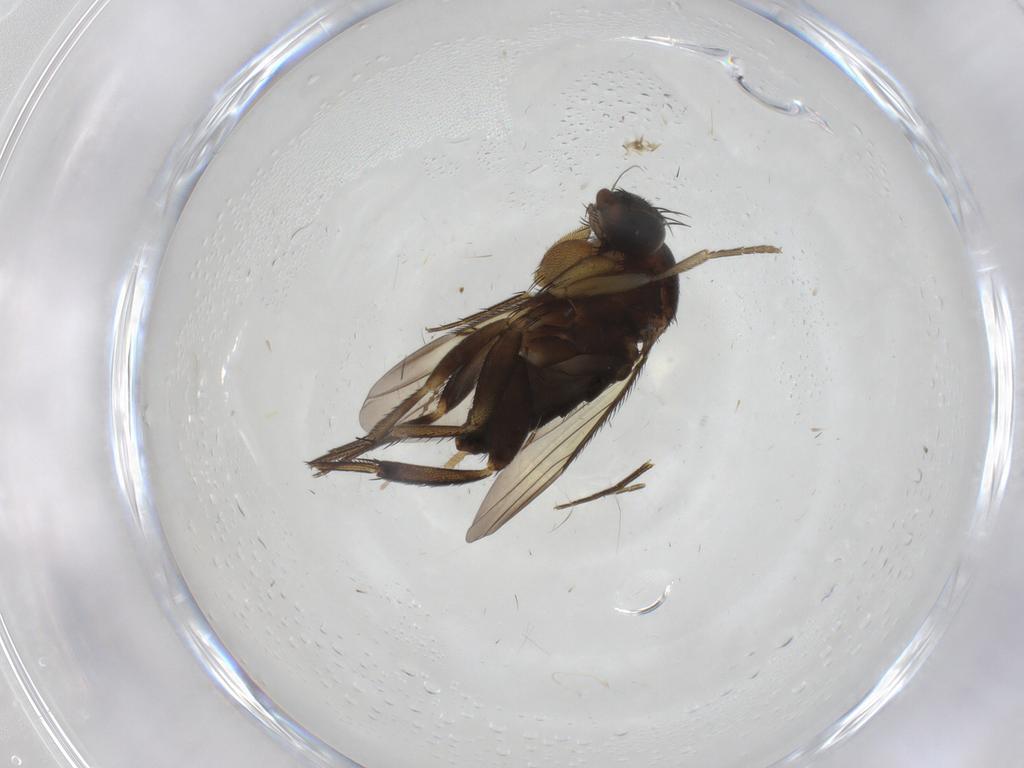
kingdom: Animalia
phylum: Arthropoda
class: Insecta
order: Diptera
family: Phoridae
